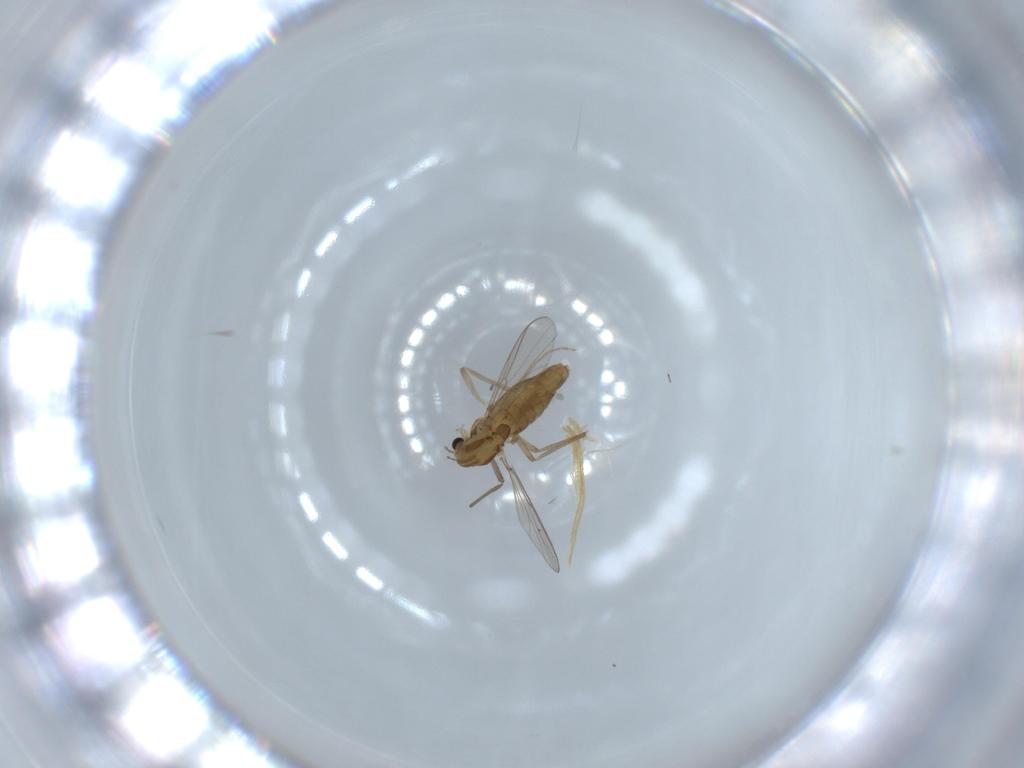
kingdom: Animalia
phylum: Arthropoda
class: Insecta
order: Diptera
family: Chironomidae
